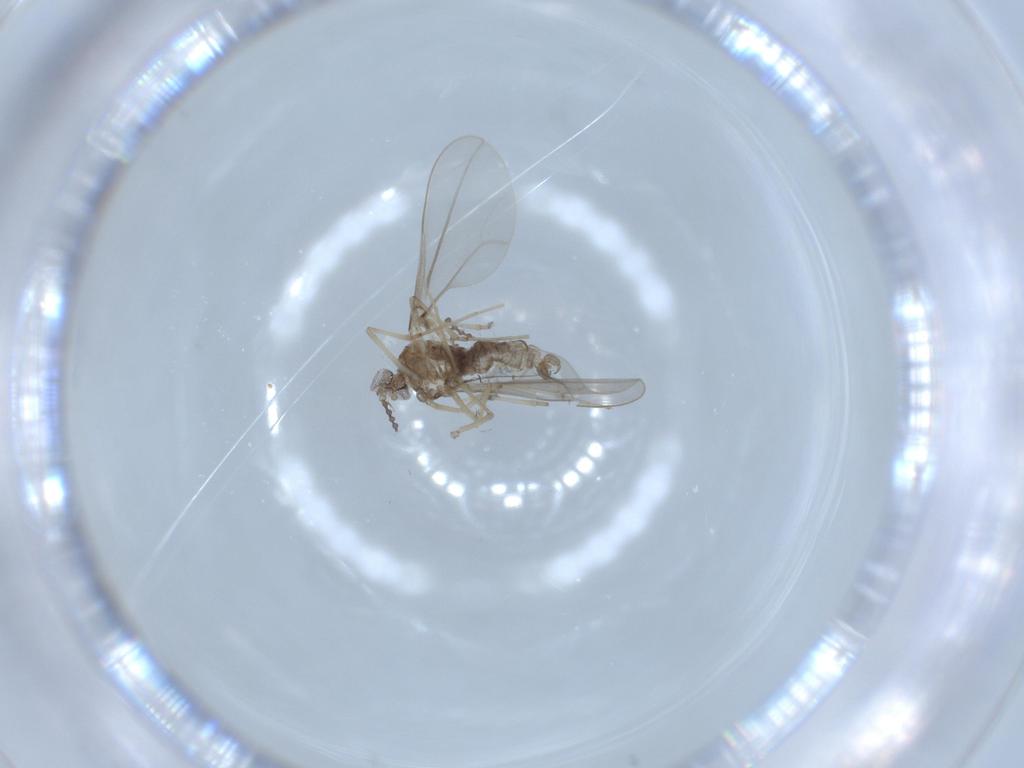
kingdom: Animalia
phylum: Arthropoda
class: Insecta
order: Diptera
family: Cecidomyiidae
